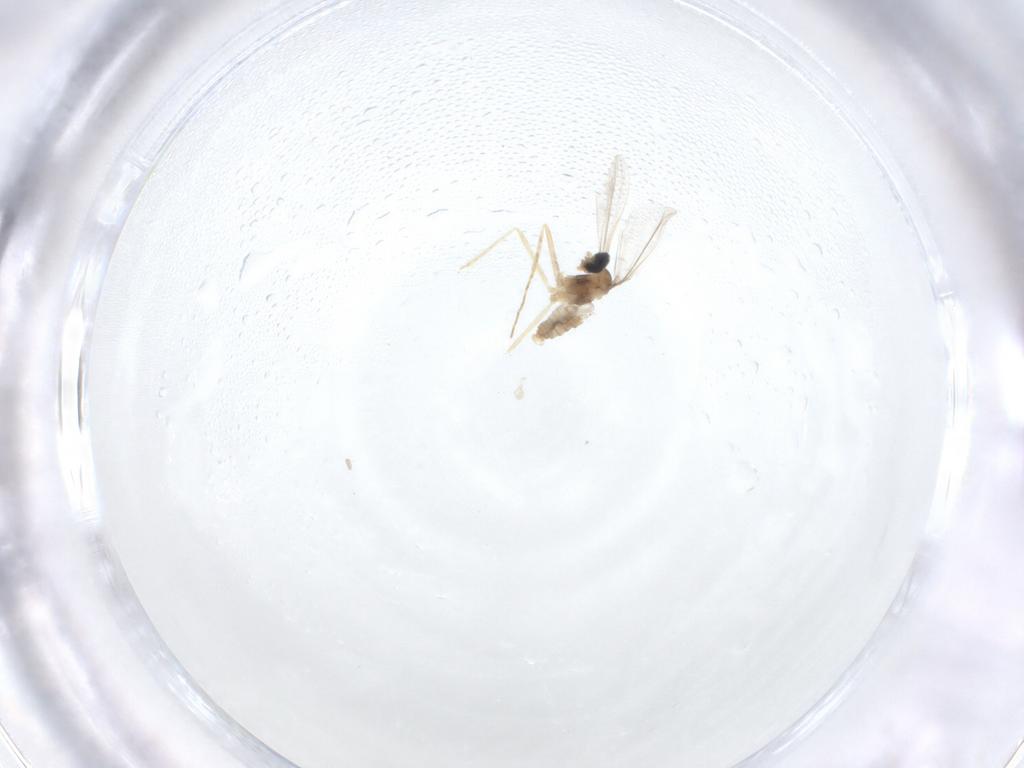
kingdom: Animalia
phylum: Arthropoda
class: Insecta
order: Diptera
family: Cecidomyiidae
